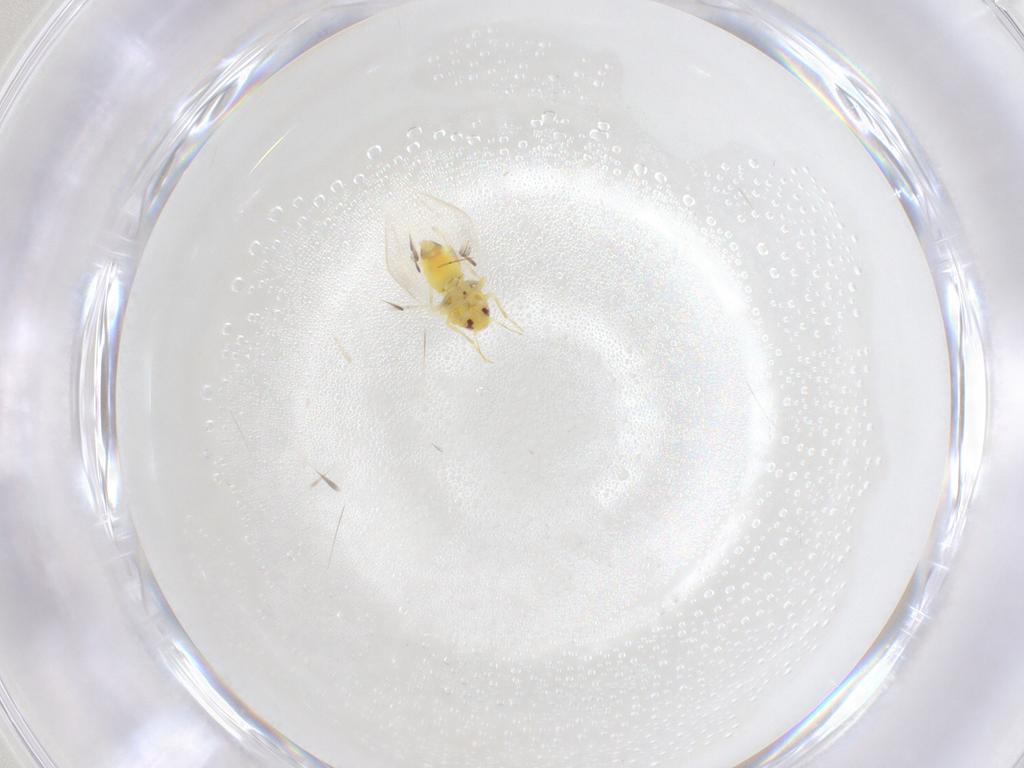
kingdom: Animalia
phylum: Arthropoda
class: Insecta
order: Hemiptera
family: Aleyrodidae
